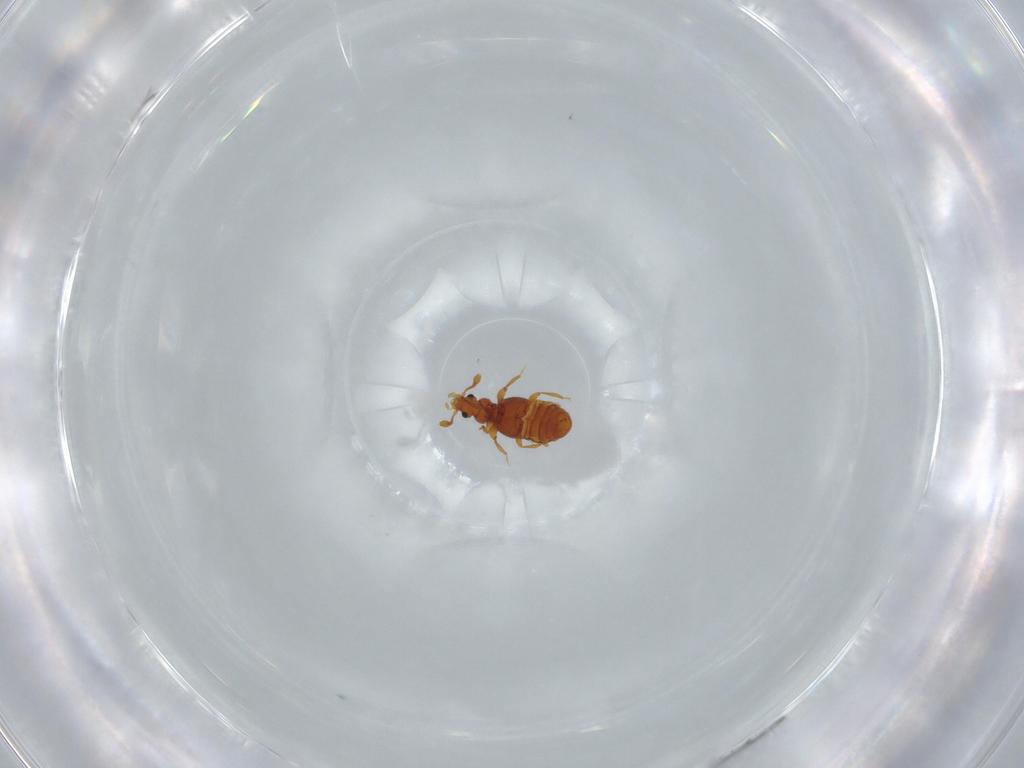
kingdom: Animalia
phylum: Arthropoda
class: Insecta
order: Coleoptera
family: Staphylinidae
